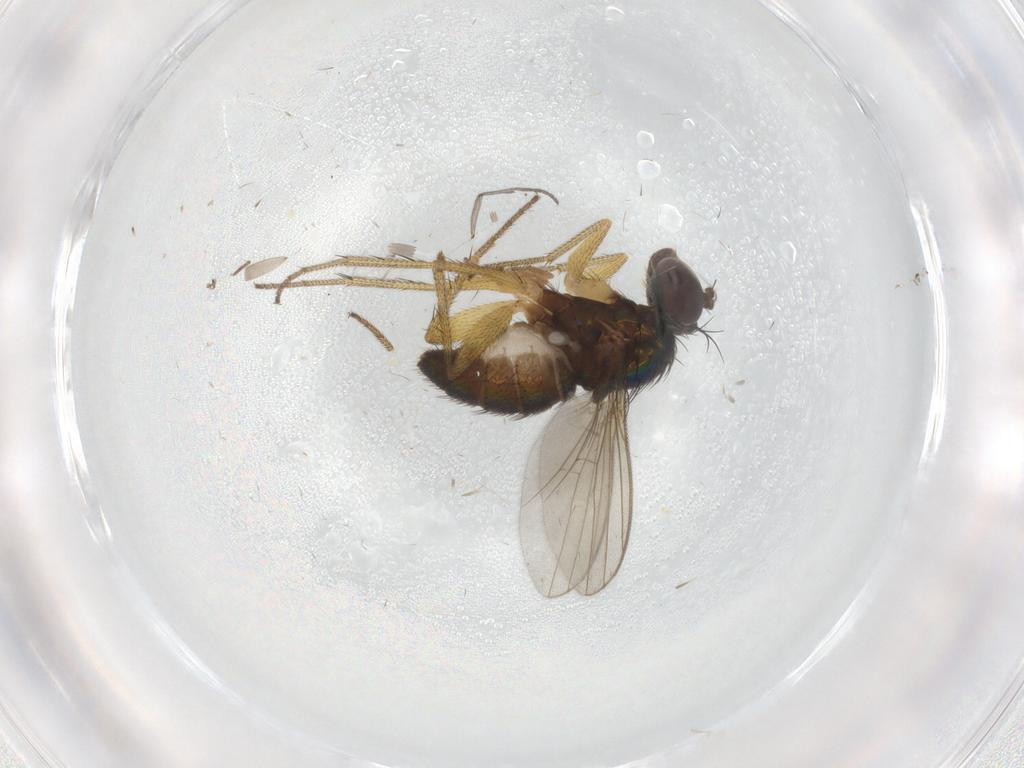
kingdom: Animalia
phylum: Arthropoda
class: Insecta
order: Diptera
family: Sciaridae
